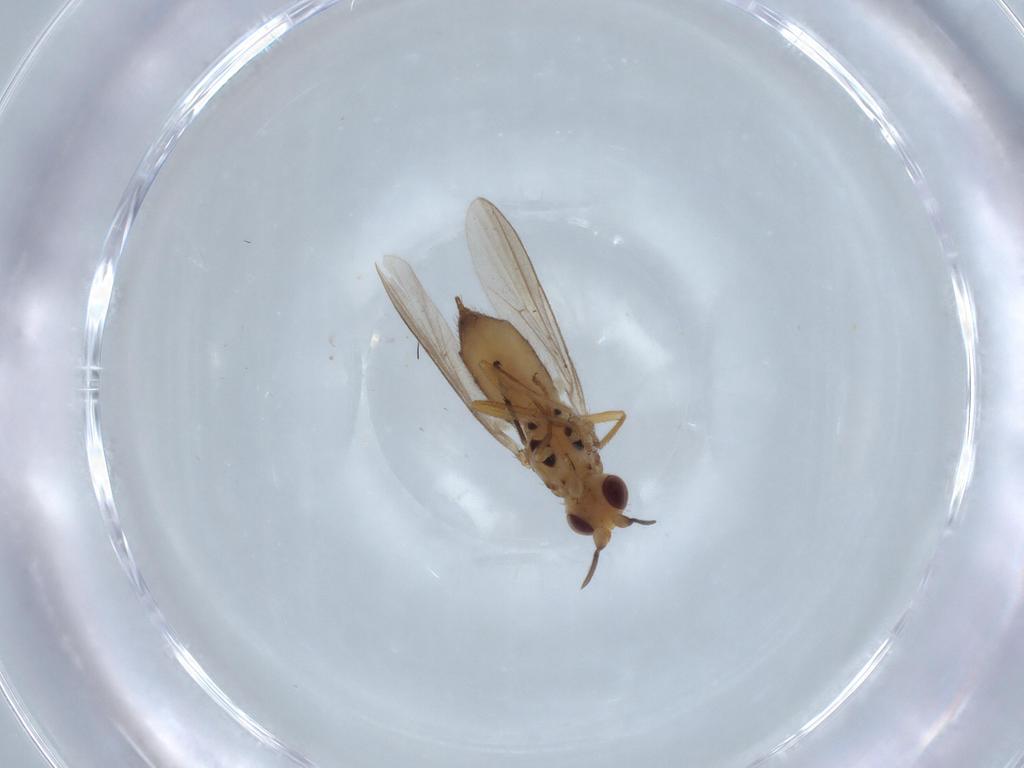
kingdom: Animalia
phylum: Arthropoda
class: Insecta
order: Diptera
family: Chloropidae
